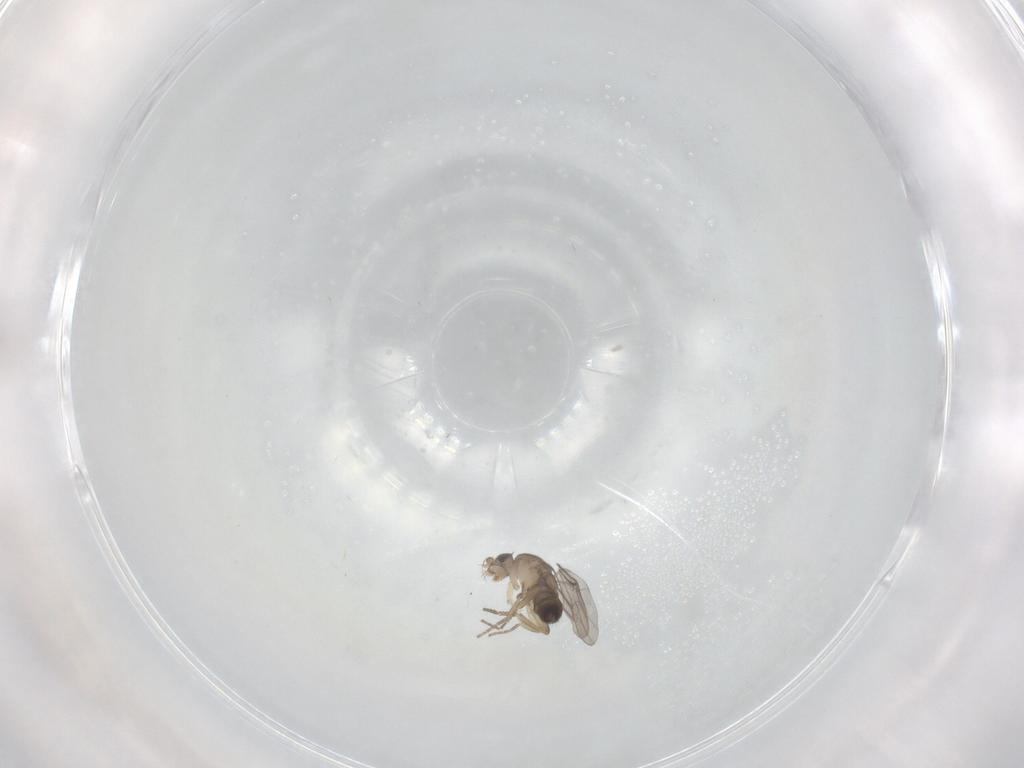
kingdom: Animalia
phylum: Arthropoda
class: Insecta
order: Diptera
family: Phoridae
